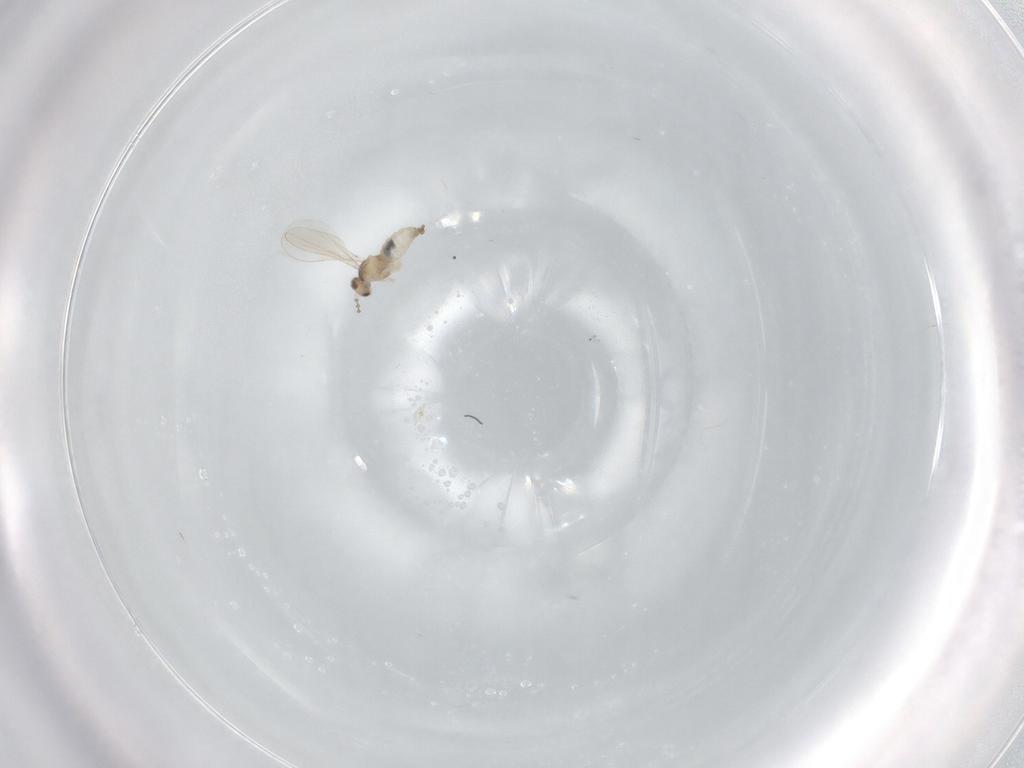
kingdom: Animalia
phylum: Arthropoda
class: Insecta
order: Diptera
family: Cecidomyiidae
